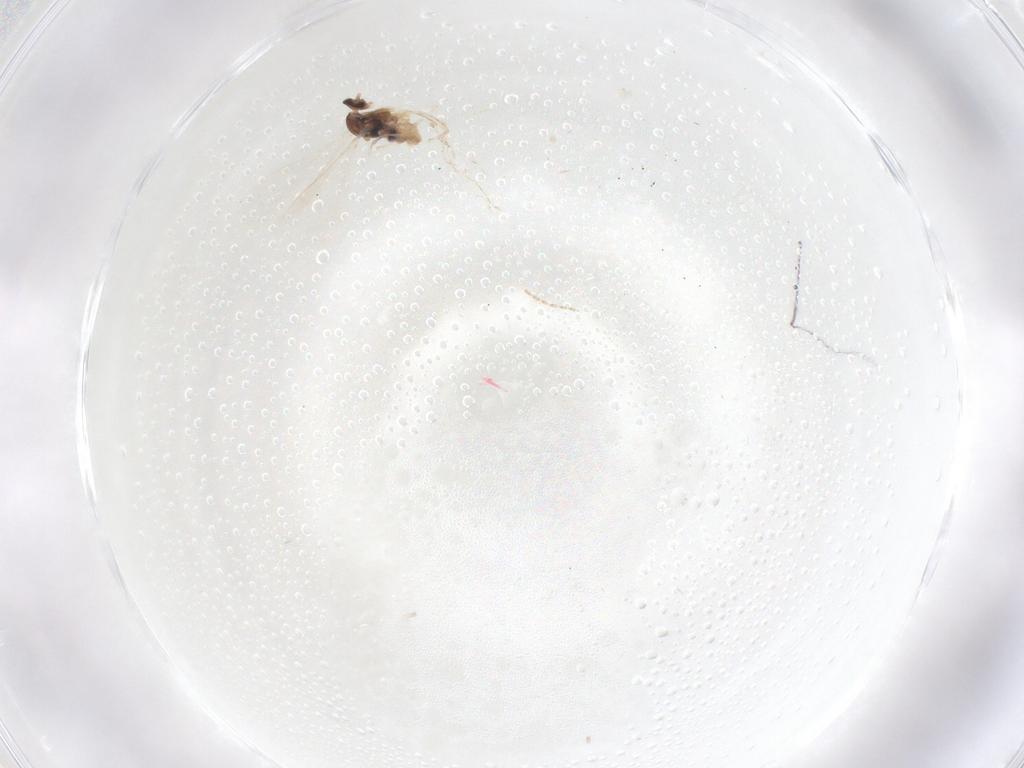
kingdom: Animalia
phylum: Arthropoda
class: Insecta
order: Diptera
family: Cecidomyiidae
